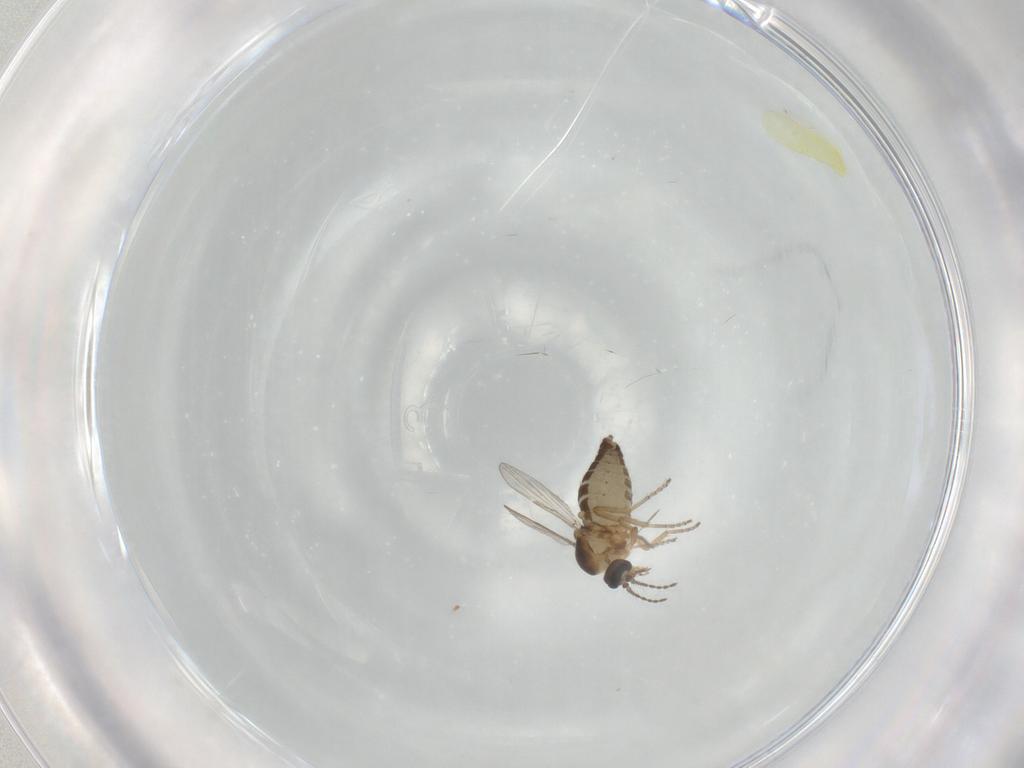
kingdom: Animalia
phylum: Arthropoda
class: Insecta
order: Diptera
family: Ceratopogonidae
